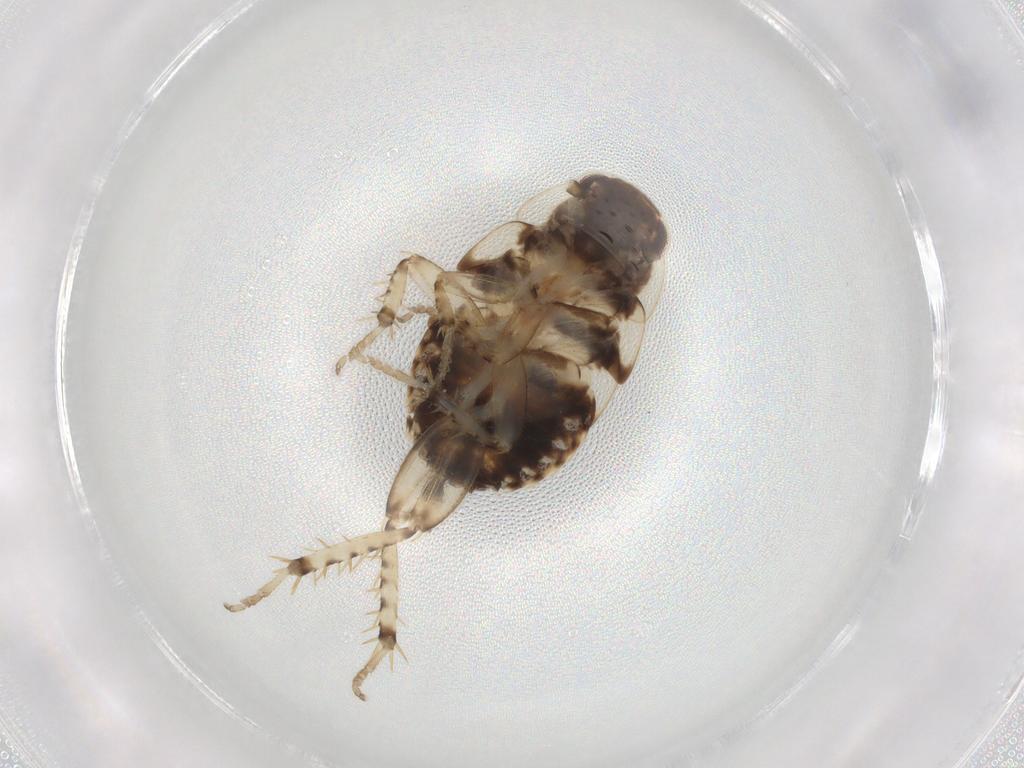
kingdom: Animalia
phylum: Arthropoda
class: Insecta
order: Blattodea
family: Ectobiidae
